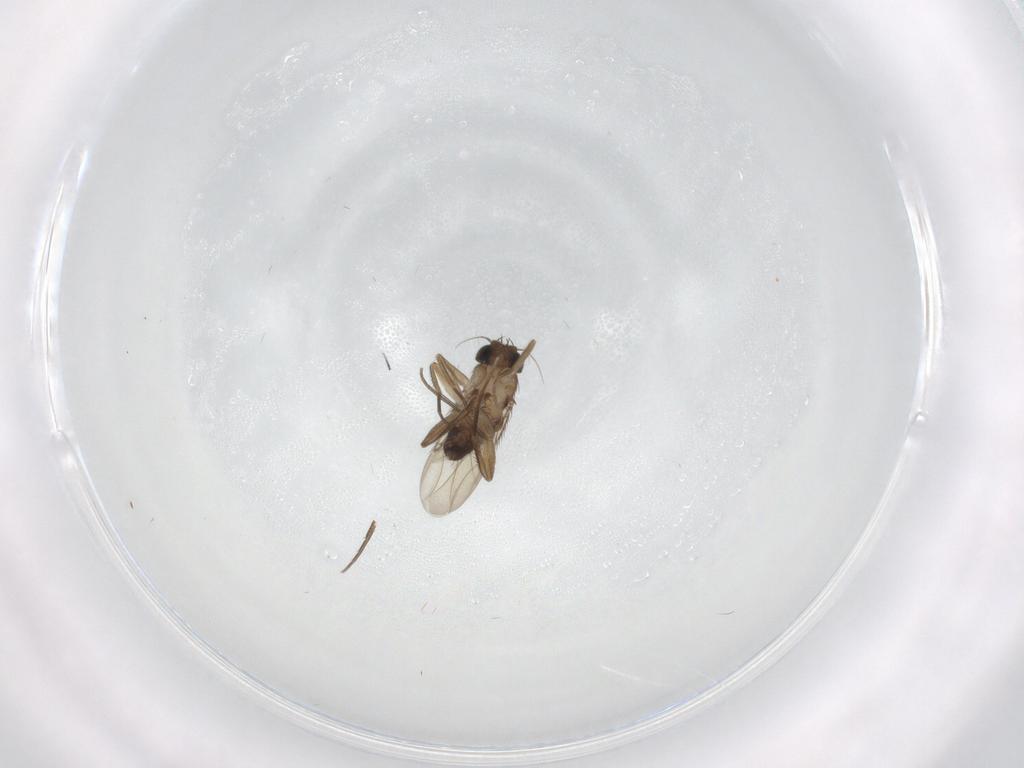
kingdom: Animalia
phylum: Arthropoda
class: Insecta
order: Diptera
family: Phoridae
